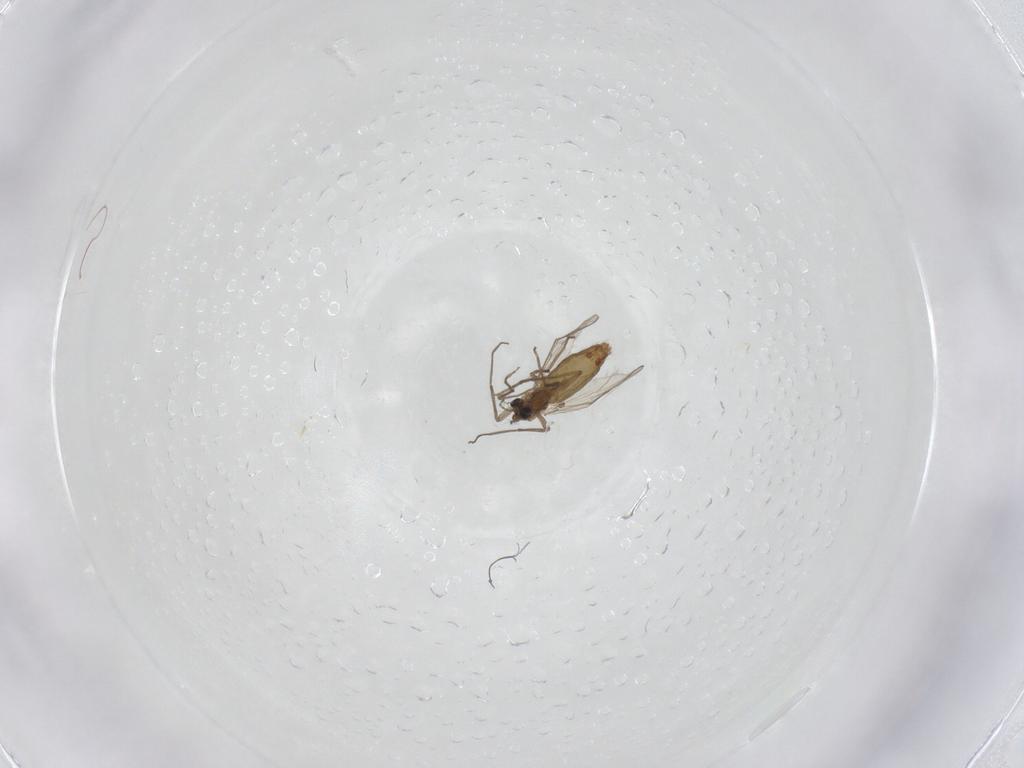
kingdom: Animalia
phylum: Arthropoda
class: Insecta
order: Diptera
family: Chironomidae
